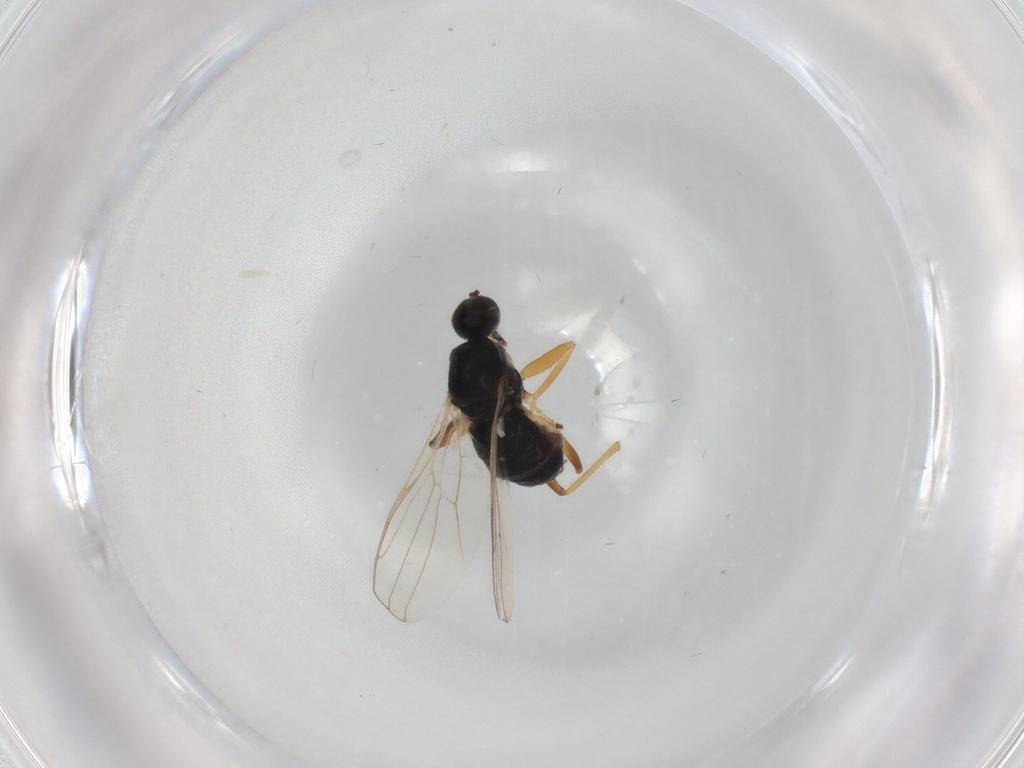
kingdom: Animalia
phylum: Arthropoda
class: Insecta
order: Diptera
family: Hybotidae
